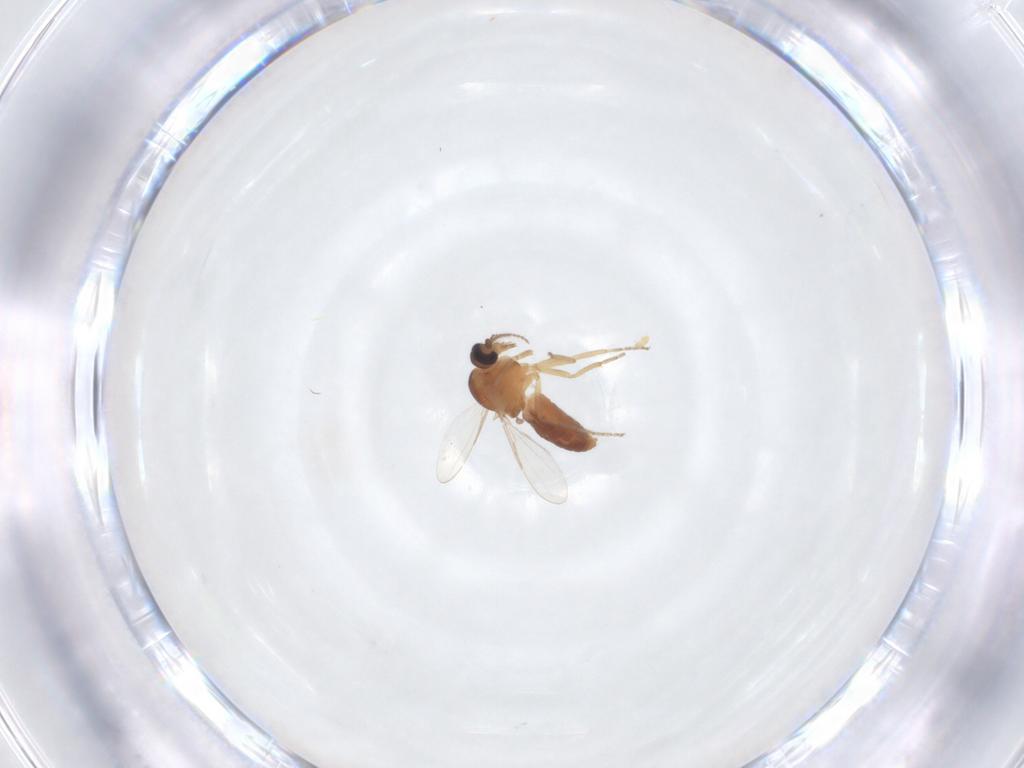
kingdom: Animalia
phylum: Arthropoda
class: Insecta
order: Diptera
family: Ceratopogonidae
